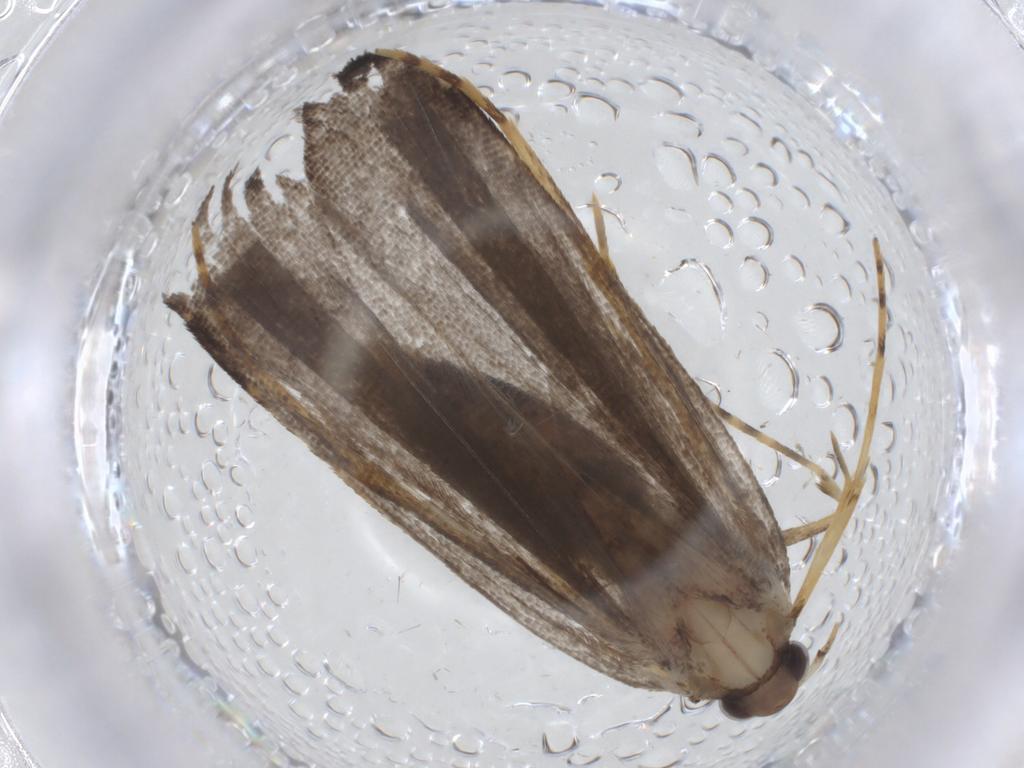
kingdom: Animalia
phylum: Arthropoda
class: Insecta
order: Lepidoptera
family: Cosmopterigidae
